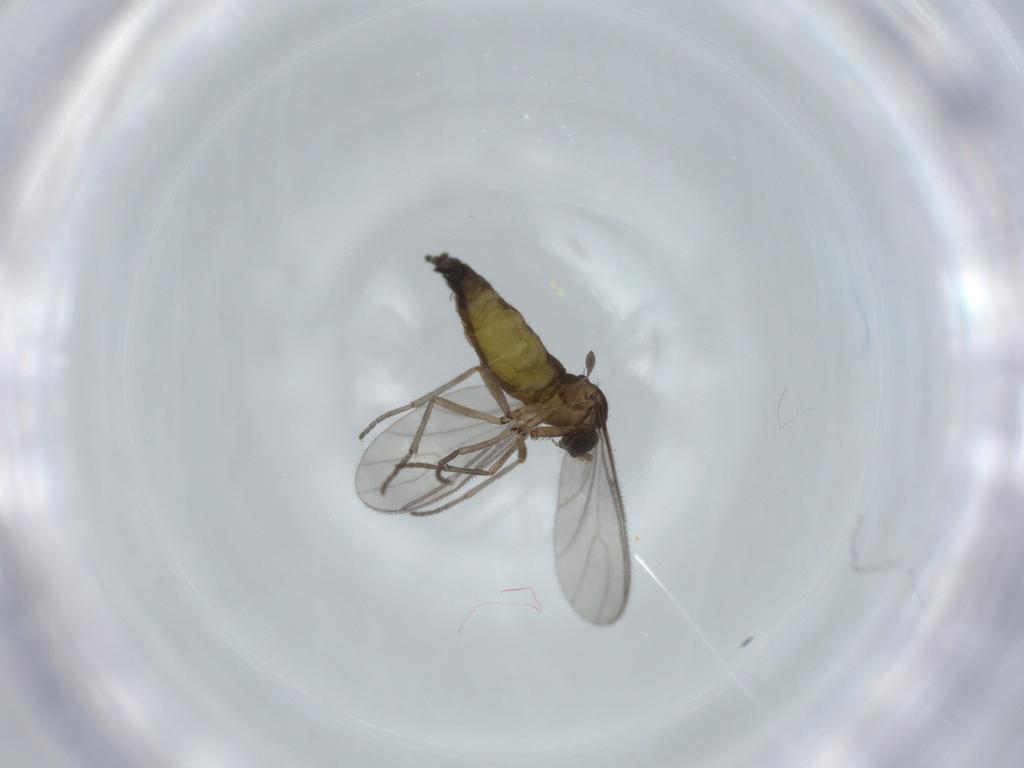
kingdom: Animalia
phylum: Arthropoda
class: Insecta
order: Diptera
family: Sciaridae
